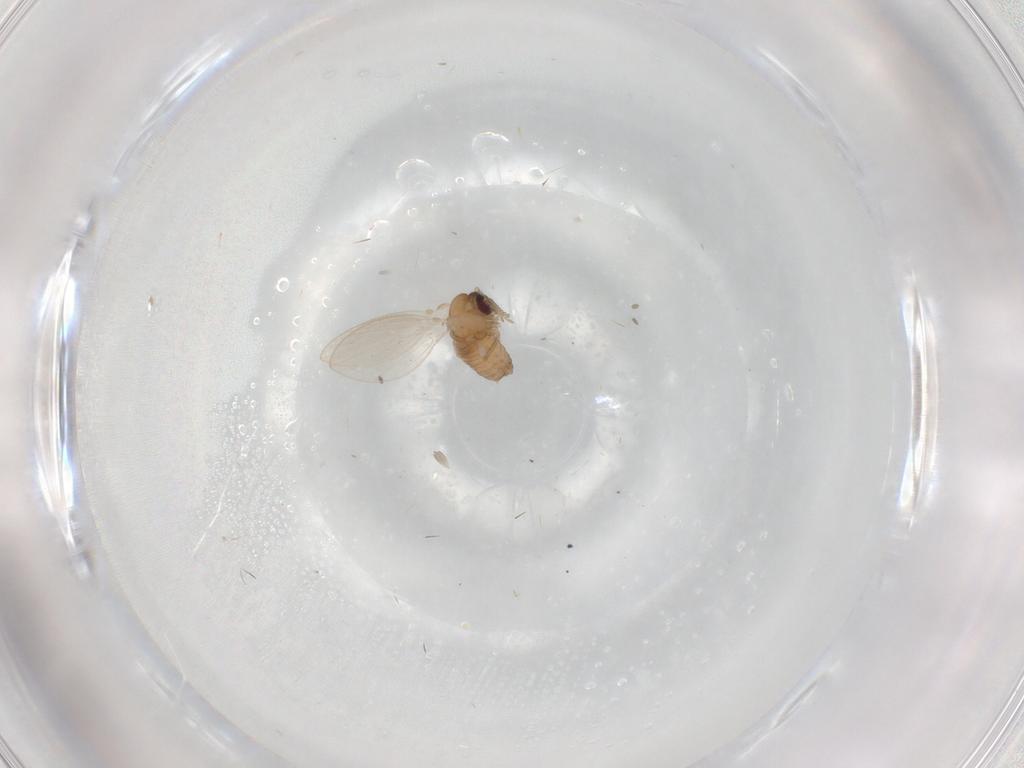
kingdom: Animalia
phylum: Arthropoda
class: Insecta
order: Diptera
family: Psychodidae
